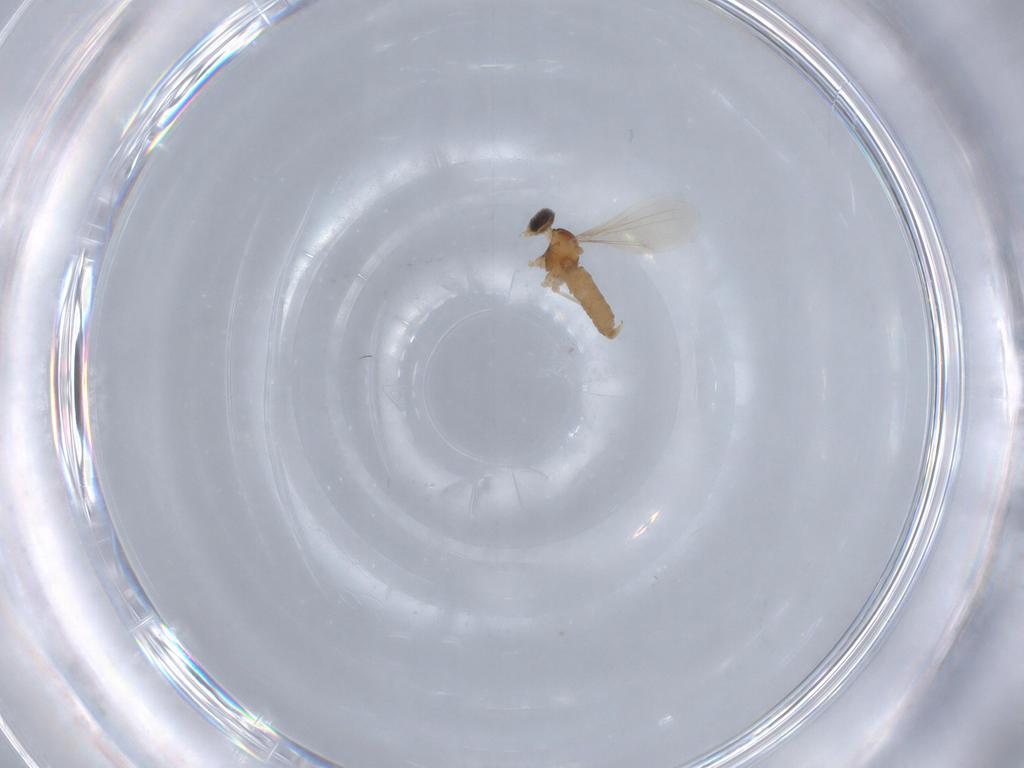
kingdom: Animalia
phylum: Arthropoda
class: Insecta
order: Diptera
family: Cecidomyiidae
